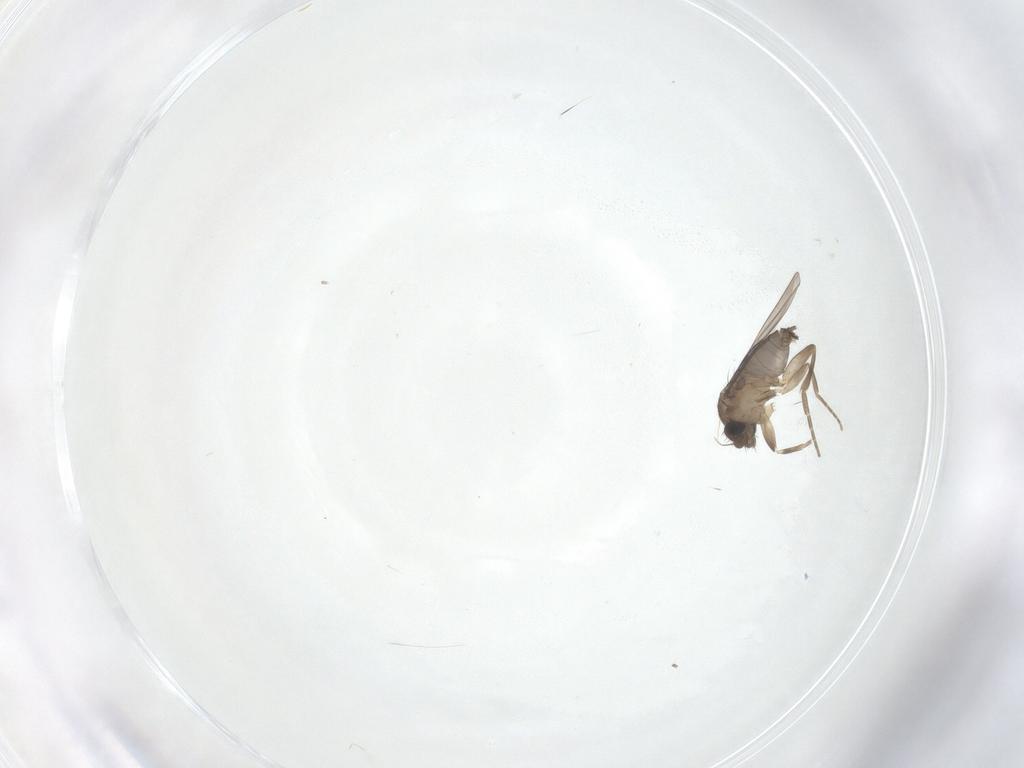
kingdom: Animalia
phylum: Arthropoda
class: Insecta
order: Diptera
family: Phoridae
